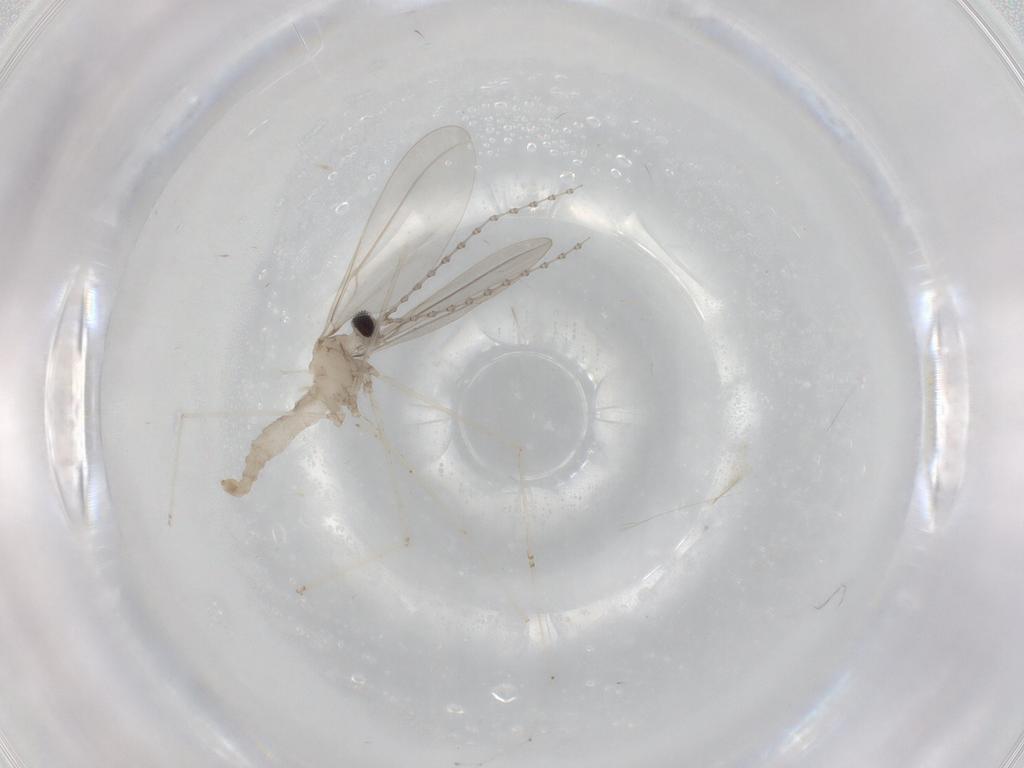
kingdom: Animalia
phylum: Arthropoda
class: Insecta
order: Diptera
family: Cecidomyiidae
